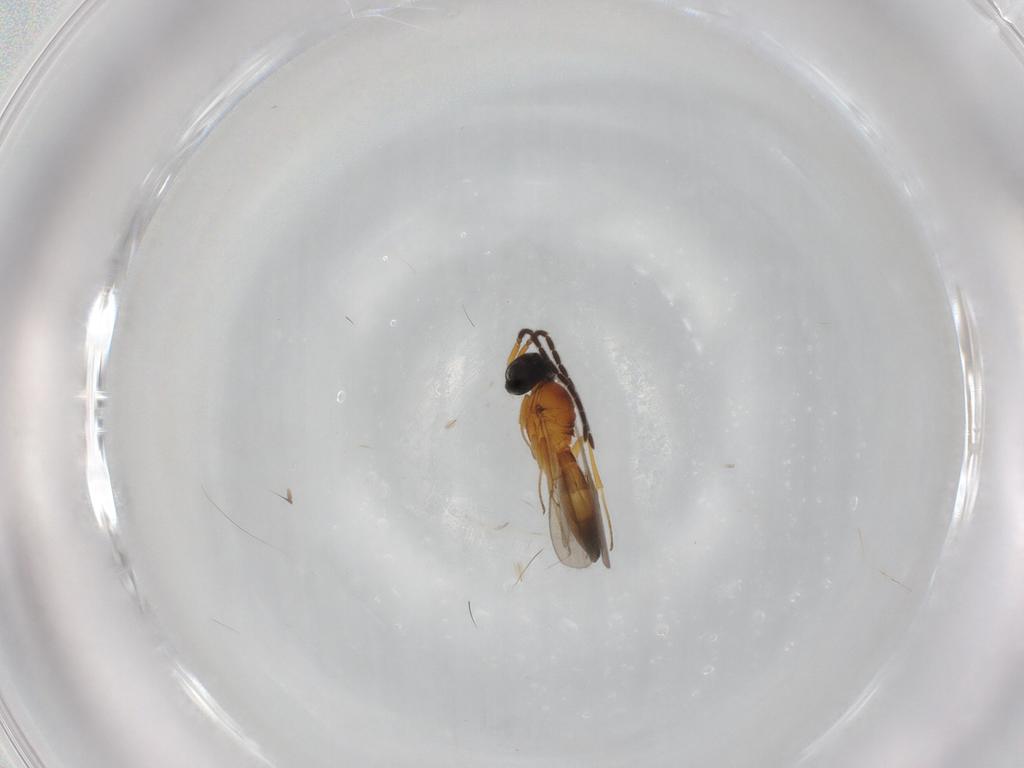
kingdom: Animalia
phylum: Arthropoda
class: Insecta
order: Hymenoptera
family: Scelionidae
